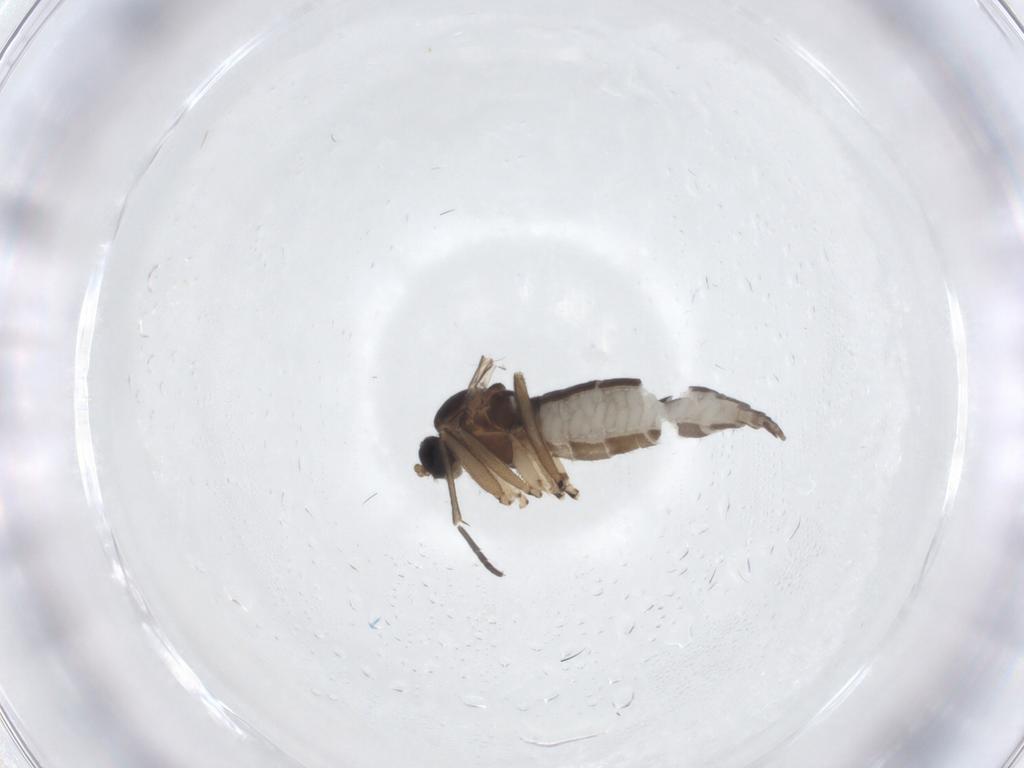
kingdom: Animalia
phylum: Arthropoda
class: Insecta
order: Diptera
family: Sciaridae
